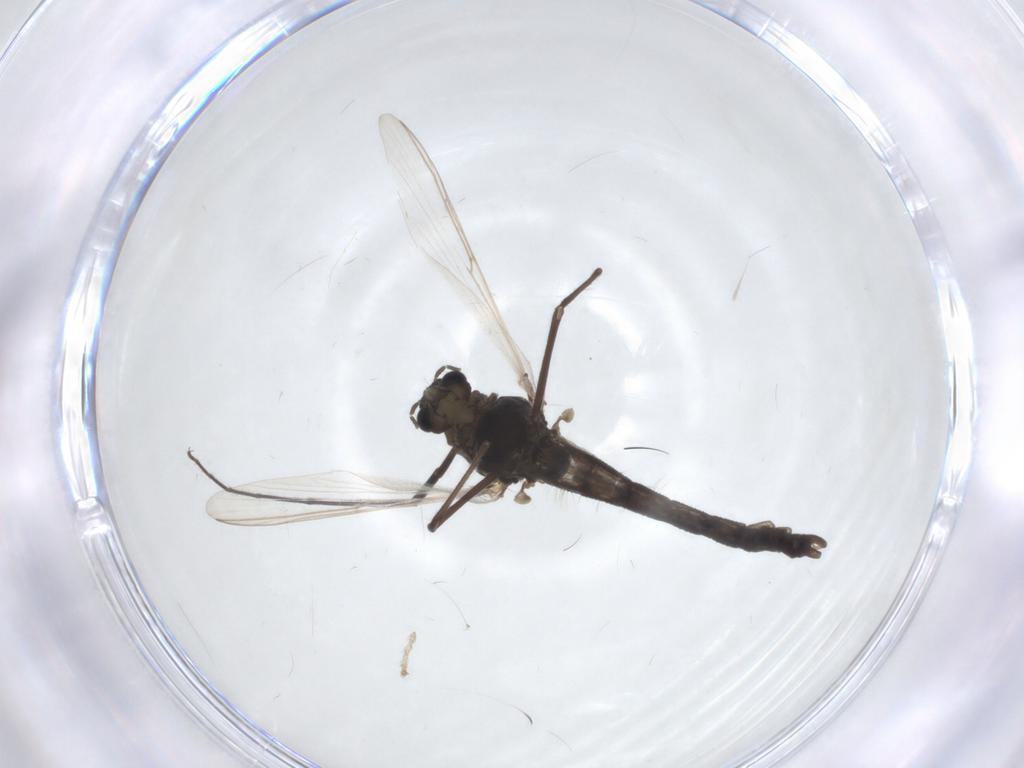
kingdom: Animalia
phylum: Arthropoda
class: Insecta
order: Diptera
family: Chironomidae
